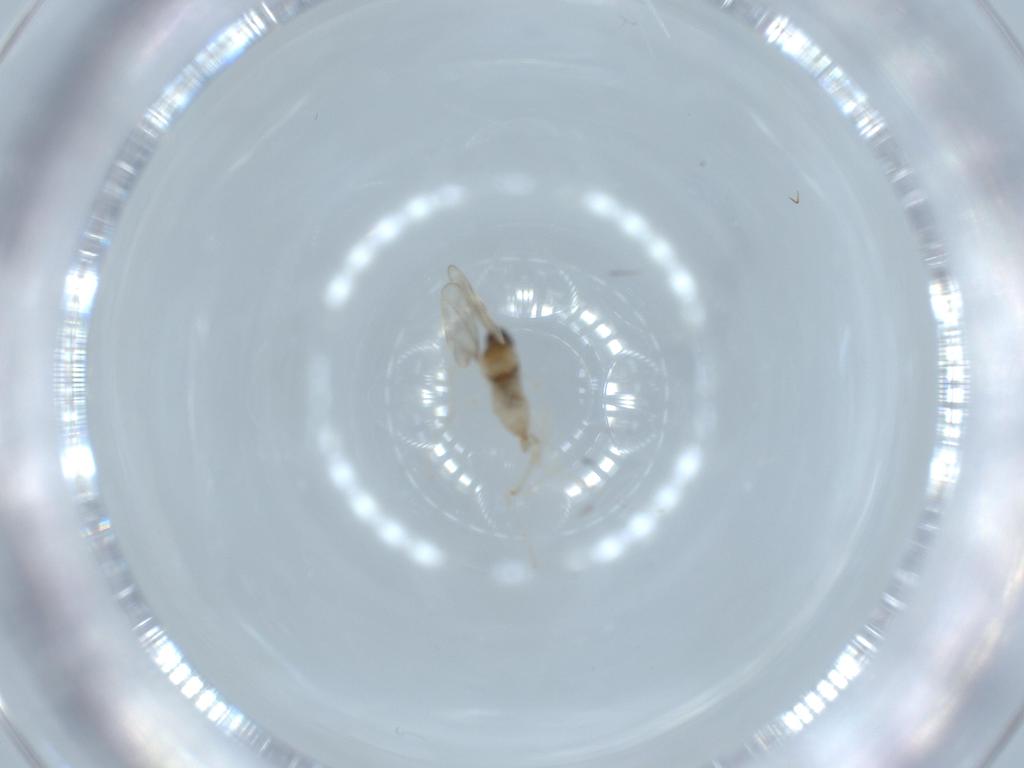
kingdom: Animalia
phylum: Arthropoda
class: Insecta
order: Diptera
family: Cecidomyiidae
